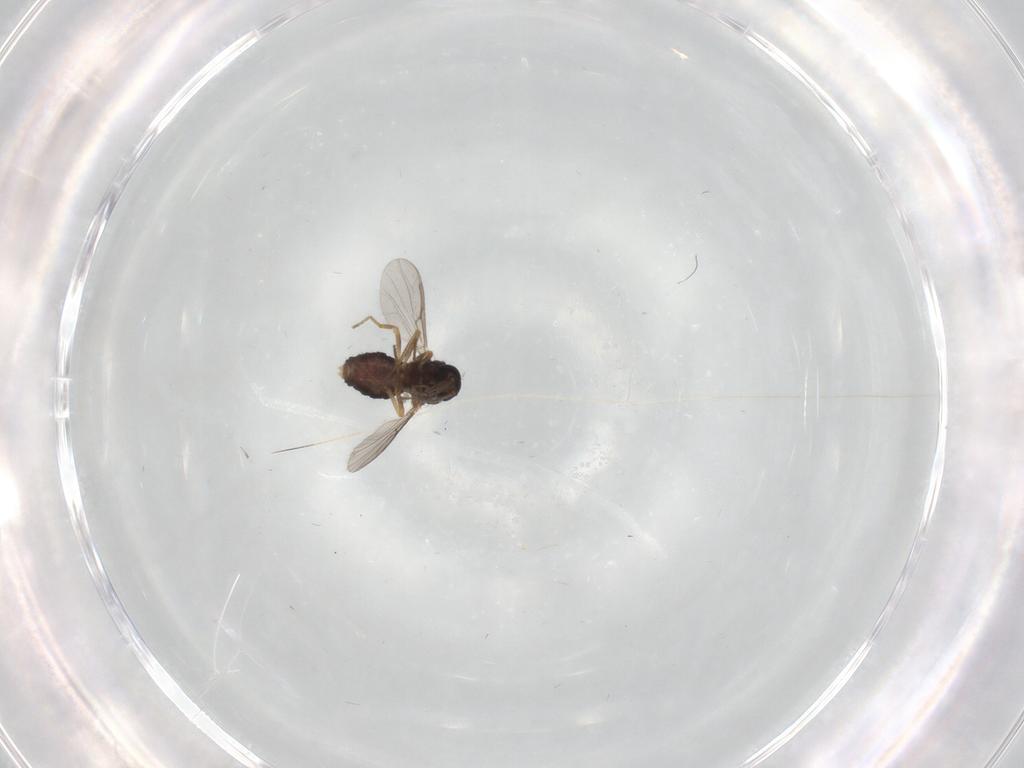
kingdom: Animalia
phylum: Arthropoda
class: Insecta
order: Diptera
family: Ceratopogonidae
